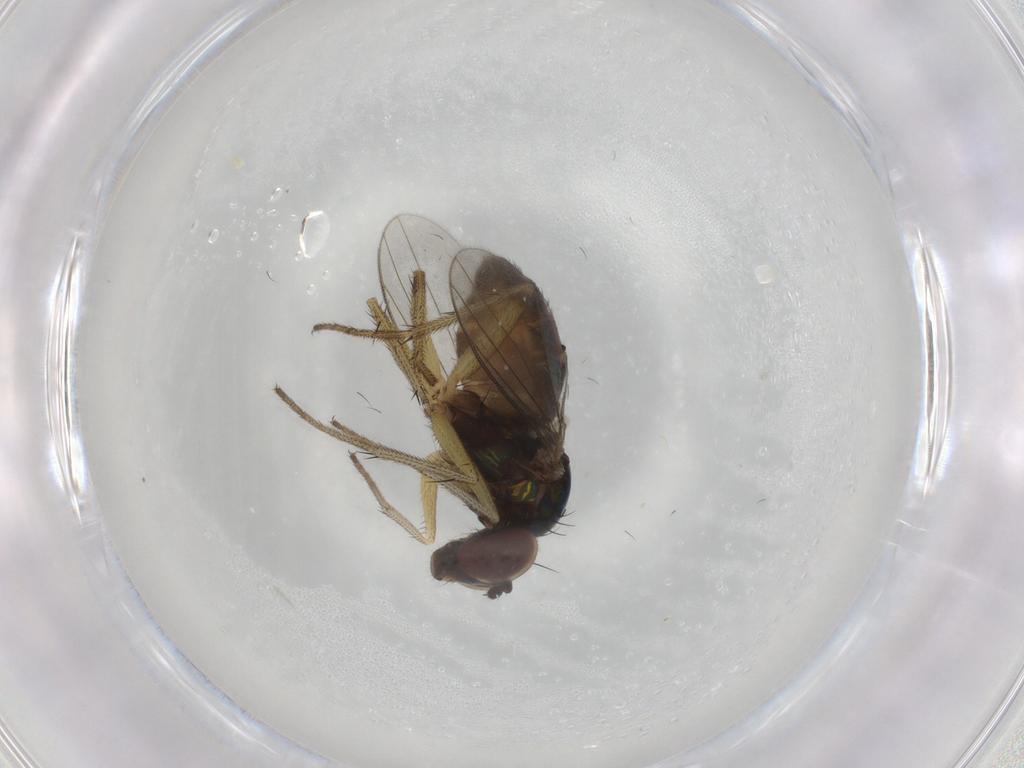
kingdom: Animalia
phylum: Arthropoda
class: Insecta
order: Diptera
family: Dolichopodidae
